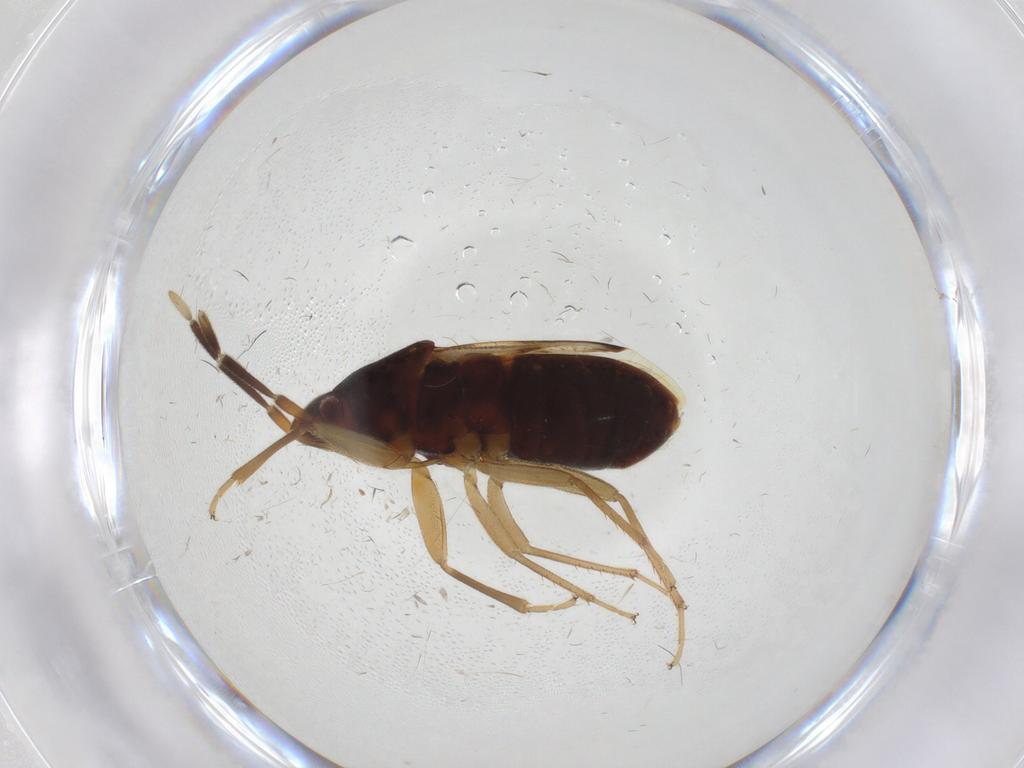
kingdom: Animalia
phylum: Arthropoda
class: Insecta
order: Hemiptera
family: Rhyparochromidae
